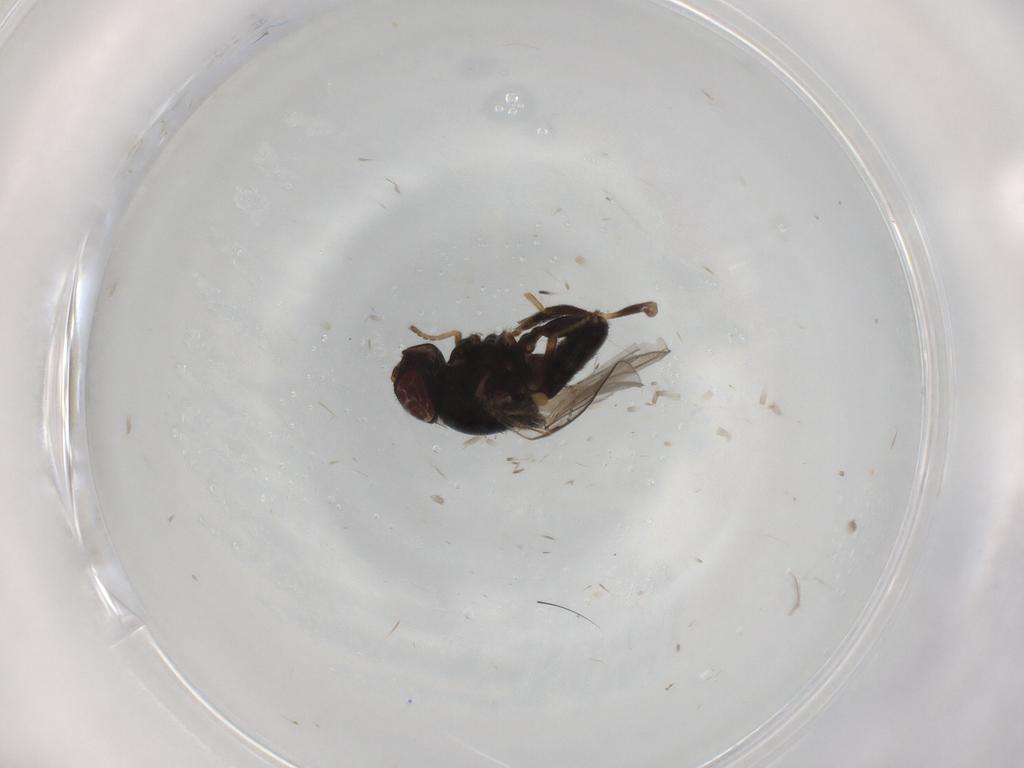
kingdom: Animalia
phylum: Arthropoda
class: Insecta
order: Diptera
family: Chloropidae
